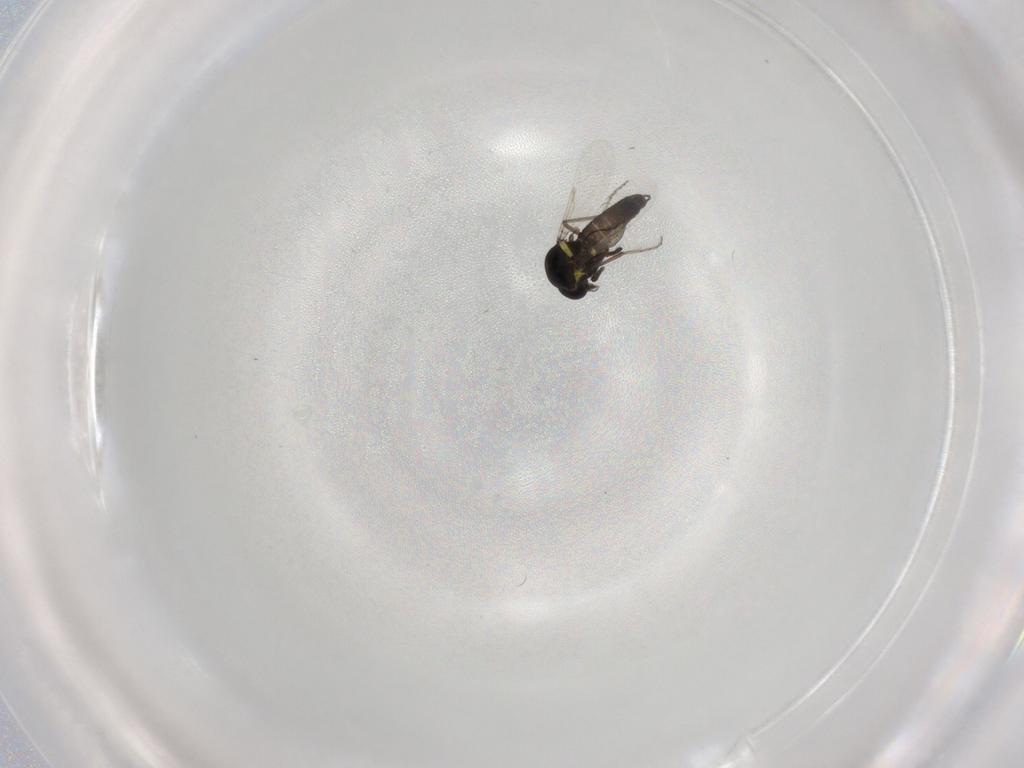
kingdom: Animalia
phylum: Arthropoda
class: Insecta
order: Diptera
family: Ceratopogonidae
